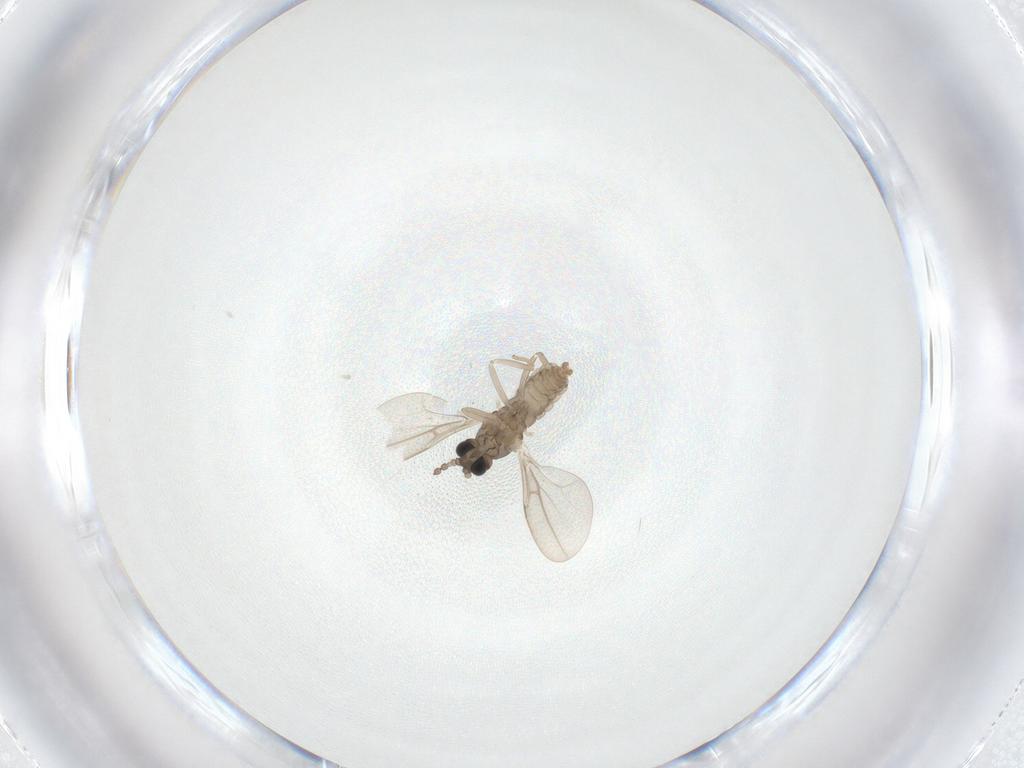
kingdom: Animalia
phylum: Arthropoda
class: Insecta
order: Diptera
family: Cecidomyiidae
